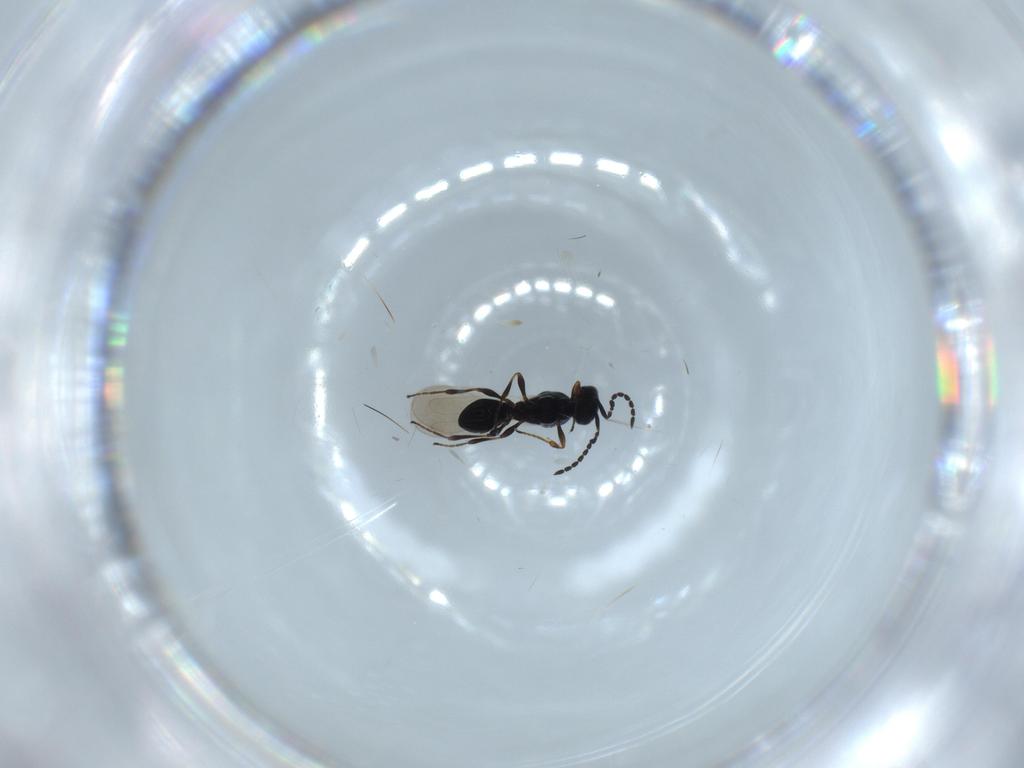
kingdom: Animalia
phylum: Arthropoda
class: Insecta
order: Hymenoptera
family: Platygastridae
